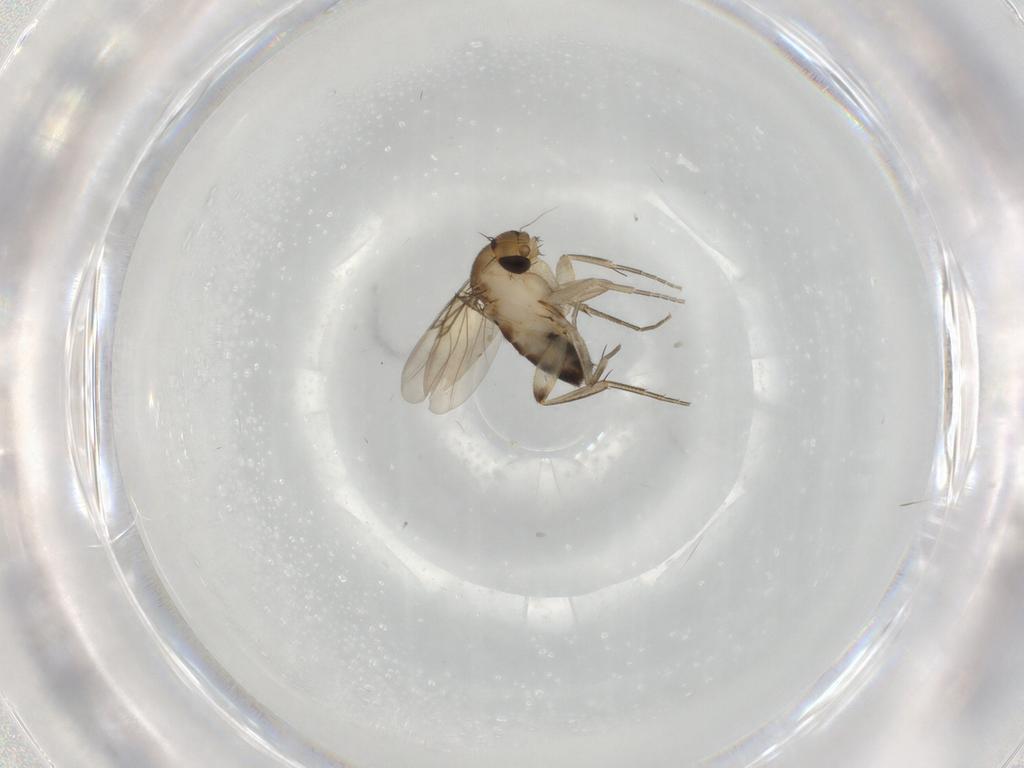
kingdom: Animalia
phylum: Arthropoda
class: Insecta
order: Diptera
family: Phoridae
